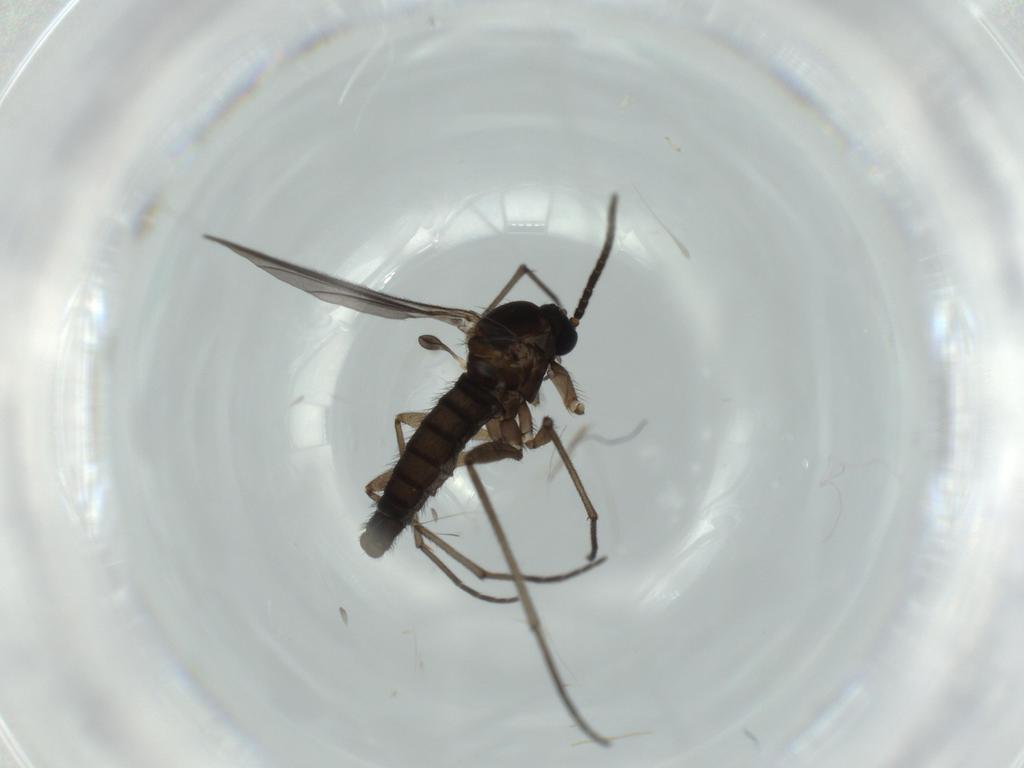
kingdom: Animalia
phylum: Arthropoda
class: Insecta
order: Diptera
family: Sciaridae
